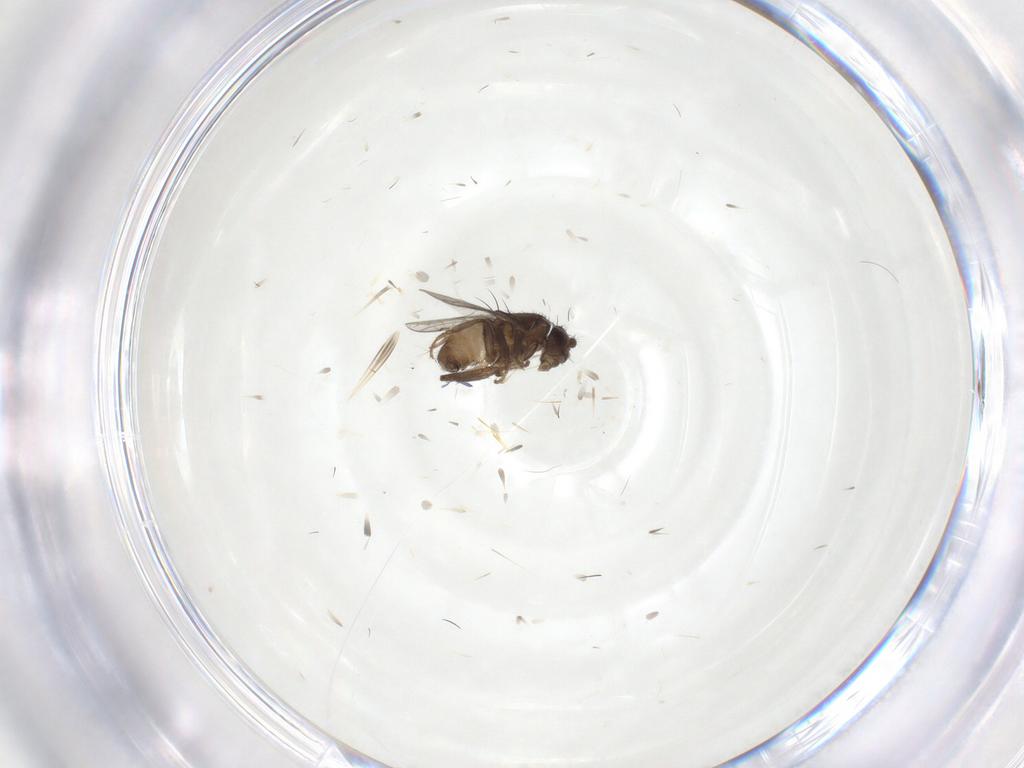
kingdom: Animalia
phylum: Arthropoda
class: Insecta
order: Diptera
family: Sphaeroceridae
